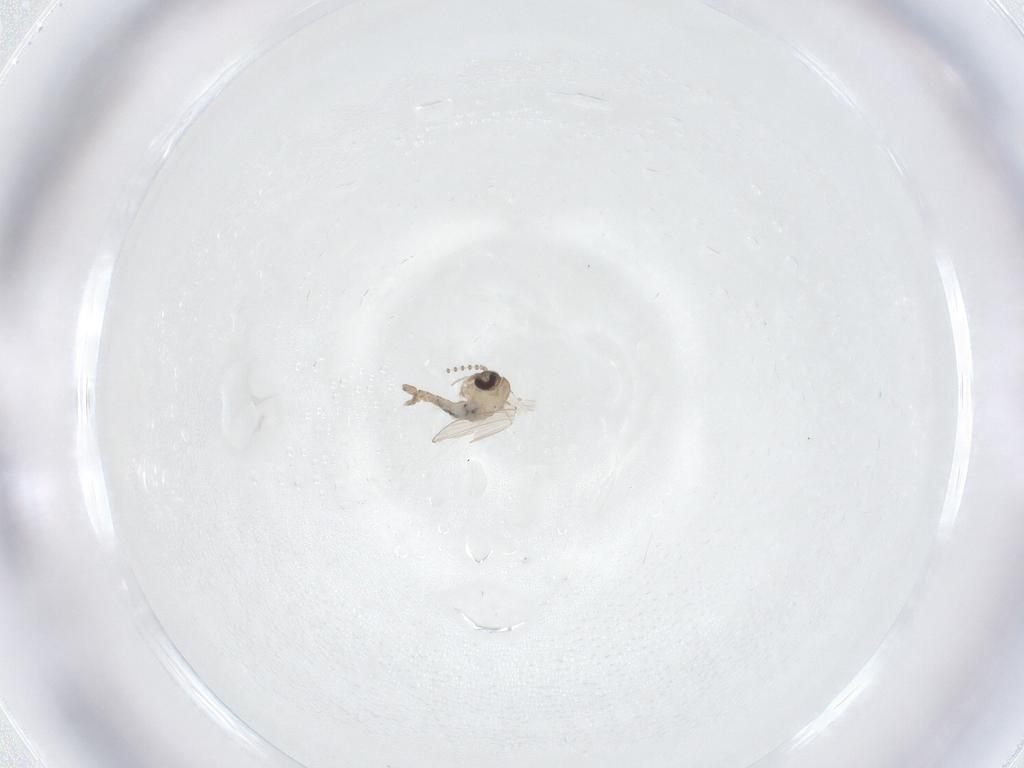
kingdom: Animalia
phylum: Arthropoda
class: Insecta
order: Diptera
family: Psychodidae
